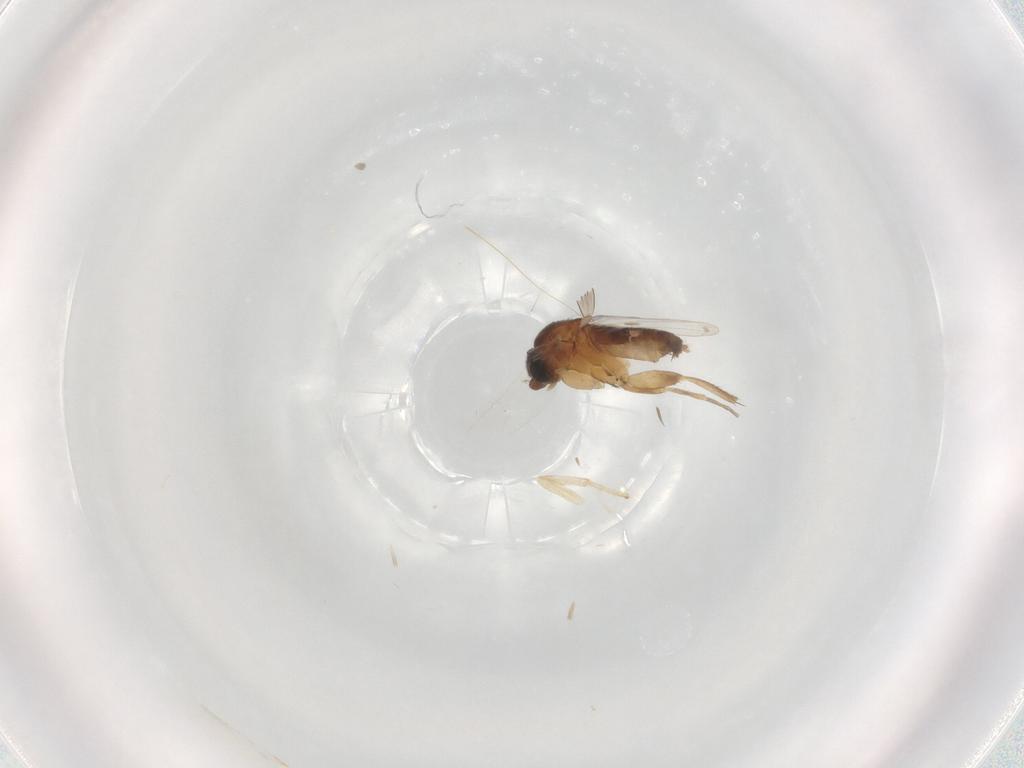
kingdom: Animalia
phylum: Arthropoda
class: Insecta
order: Diptera
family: Phoridae
